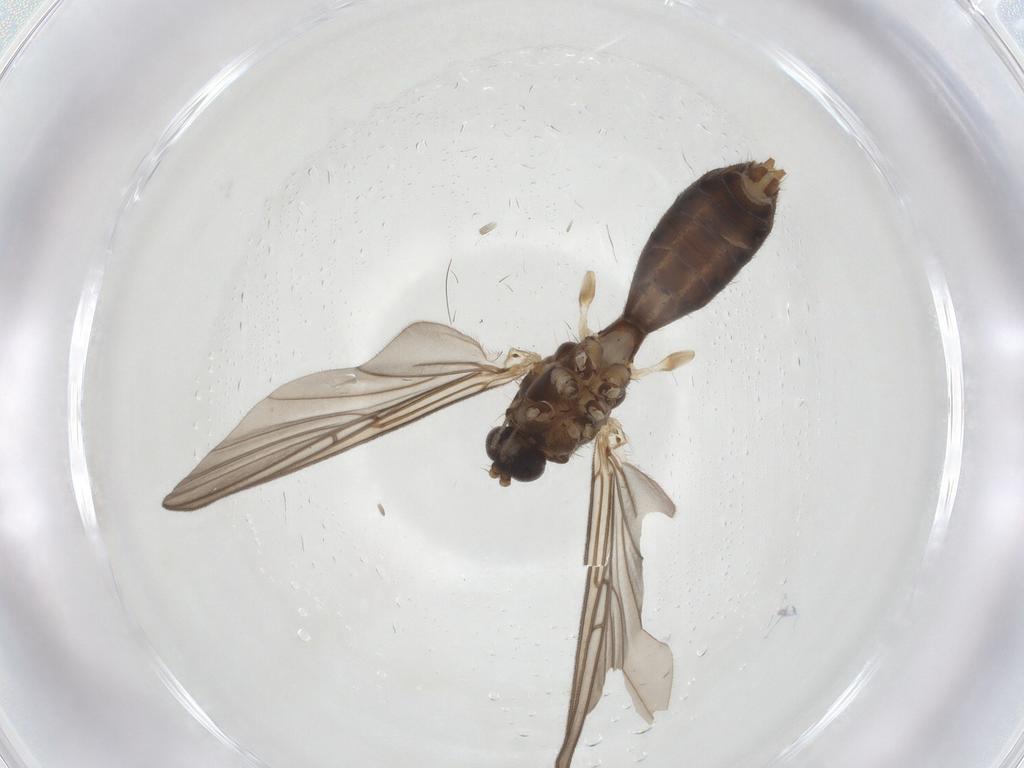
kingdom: Animalia
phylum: Arthropoda
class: Insecta
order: Diptera
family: Mycetophilidae
